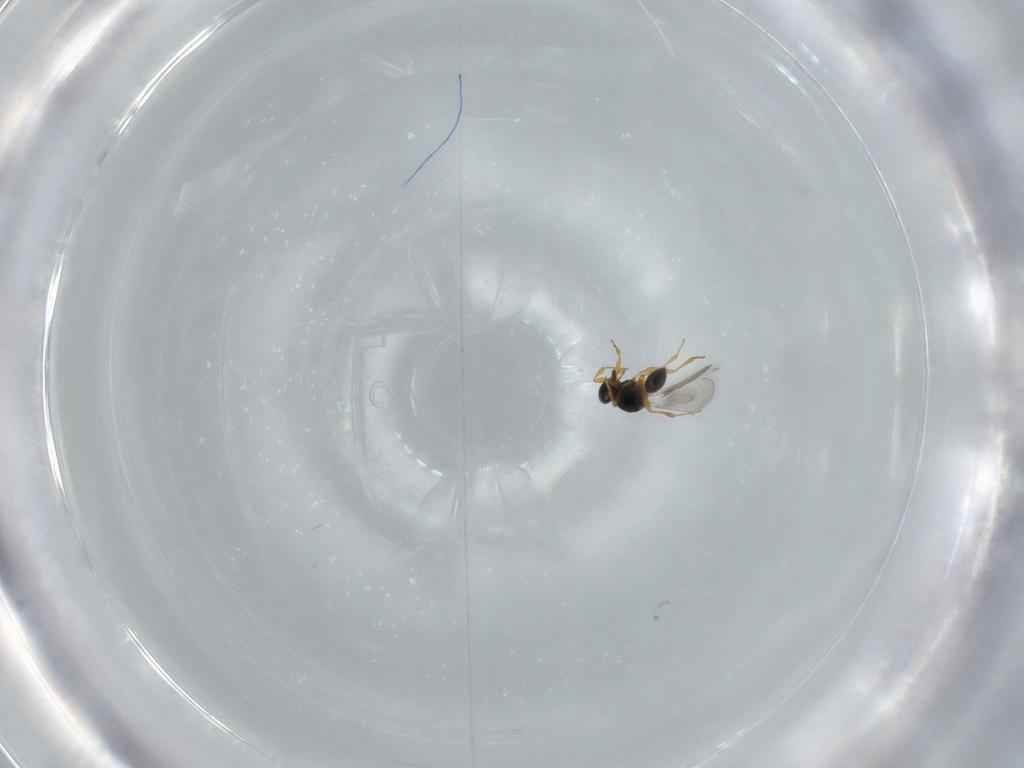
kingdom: Animalia
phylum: Arthropoda
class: Insecta
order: Hymenoptera
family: Platygastridae
